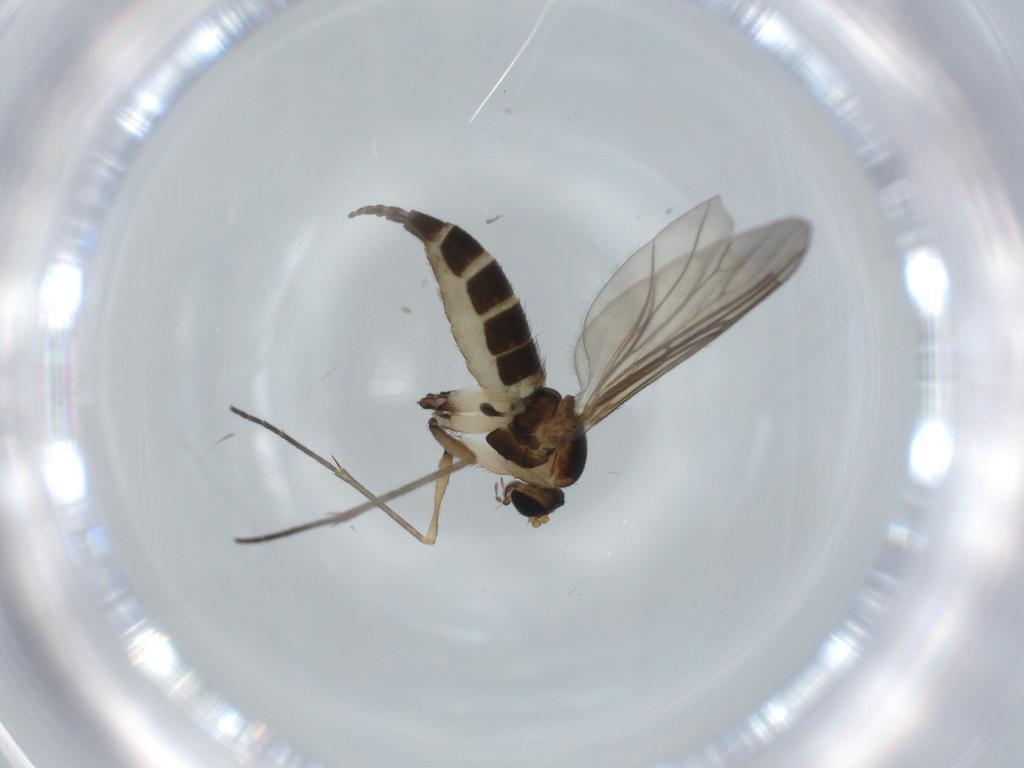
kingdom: Animalia
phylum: Arthropoda
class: Insecta
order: Diptera
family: Sciaridae
